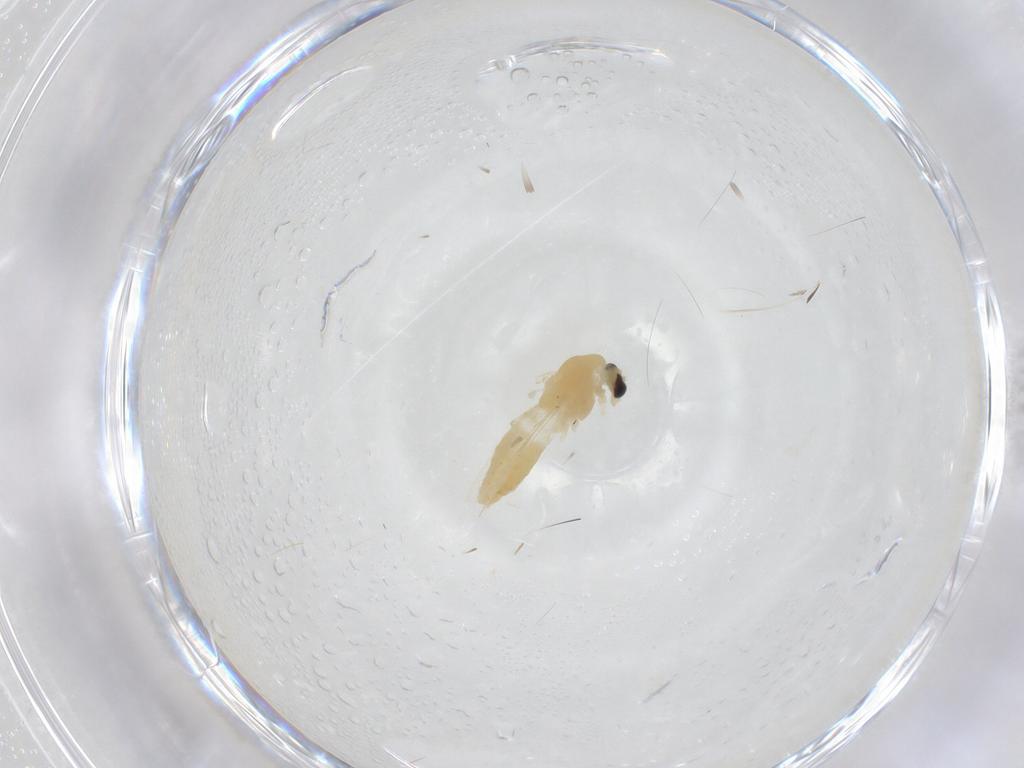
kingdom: Animalia
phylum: Arthropoda
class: Insecta
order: Diptera
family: Chironomidae
